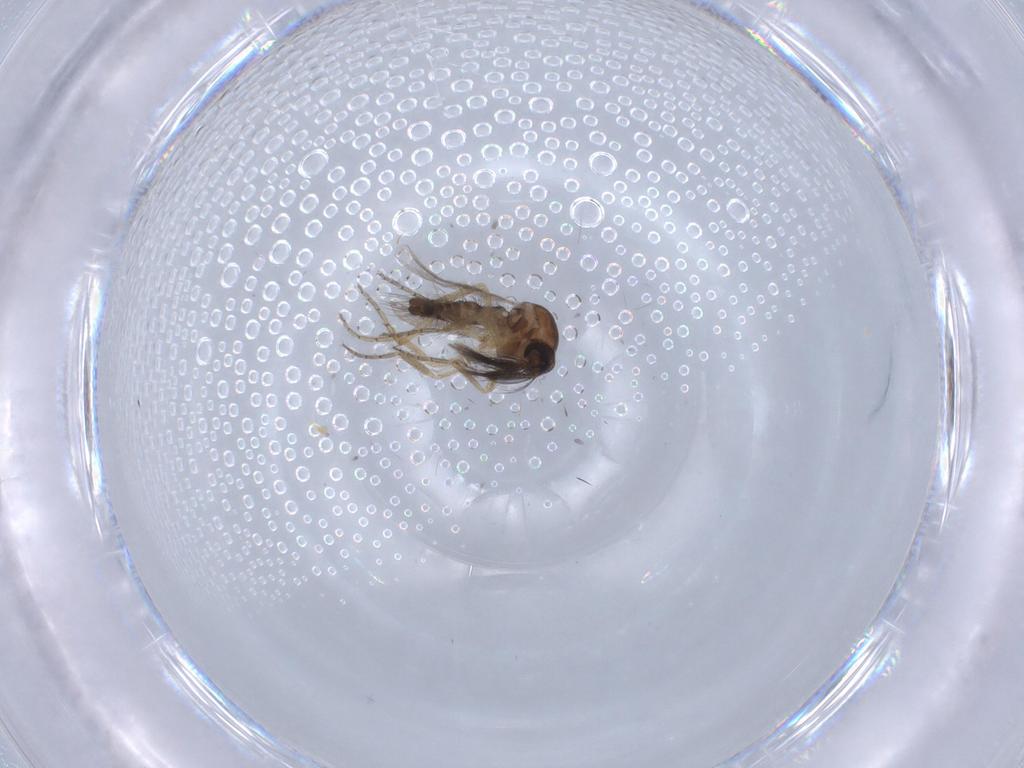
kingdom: Animalia
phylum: Arthropoda
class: Insecta
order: Diptera
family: Ceratopogonidae
